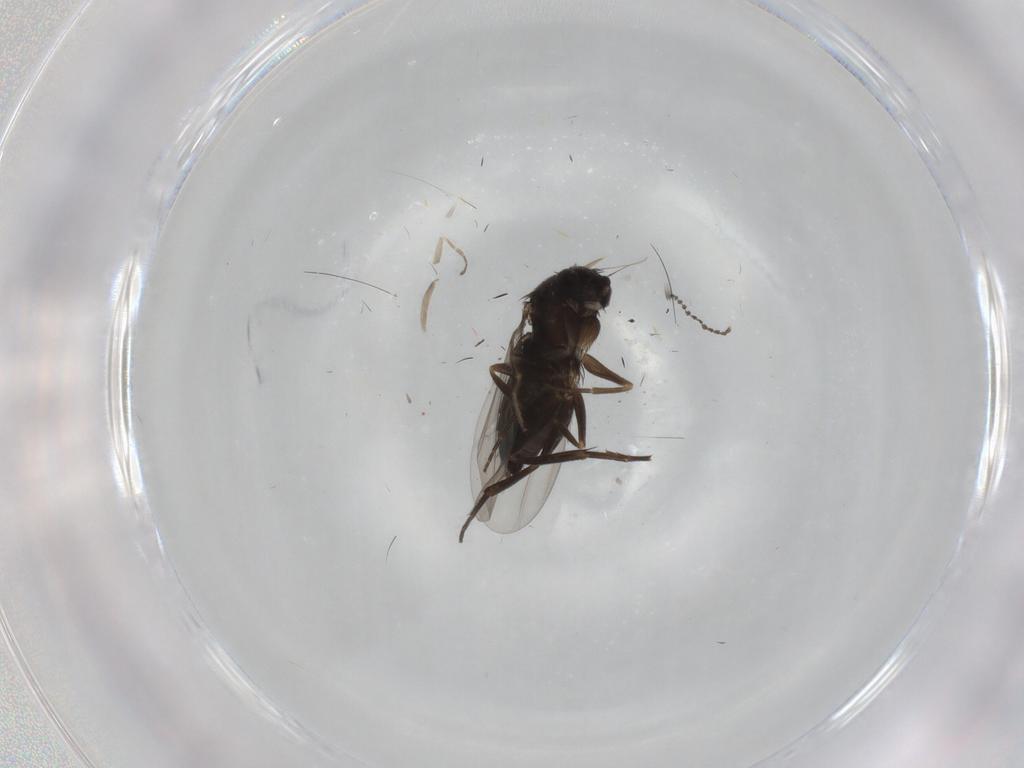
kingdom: Animalia
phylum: Arthropoda
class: Insecta
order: Diptera
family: Phoridae
